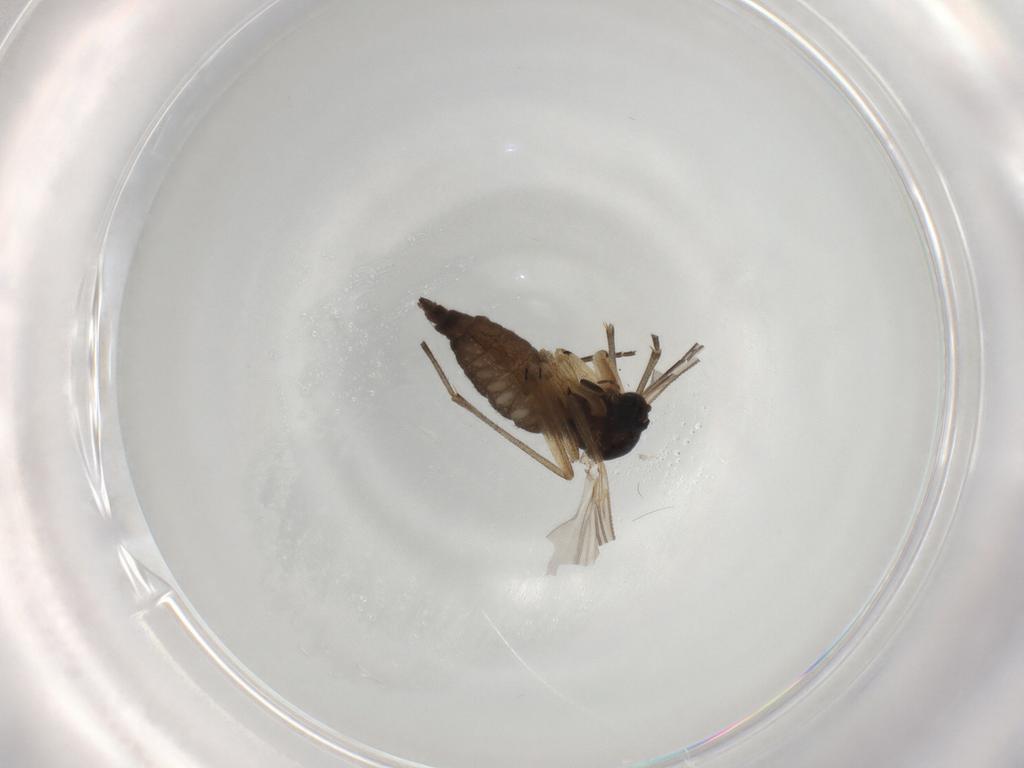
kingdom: Animalia
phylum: Arthropoda
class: Insecta
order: Diptera
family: Sciaridae
